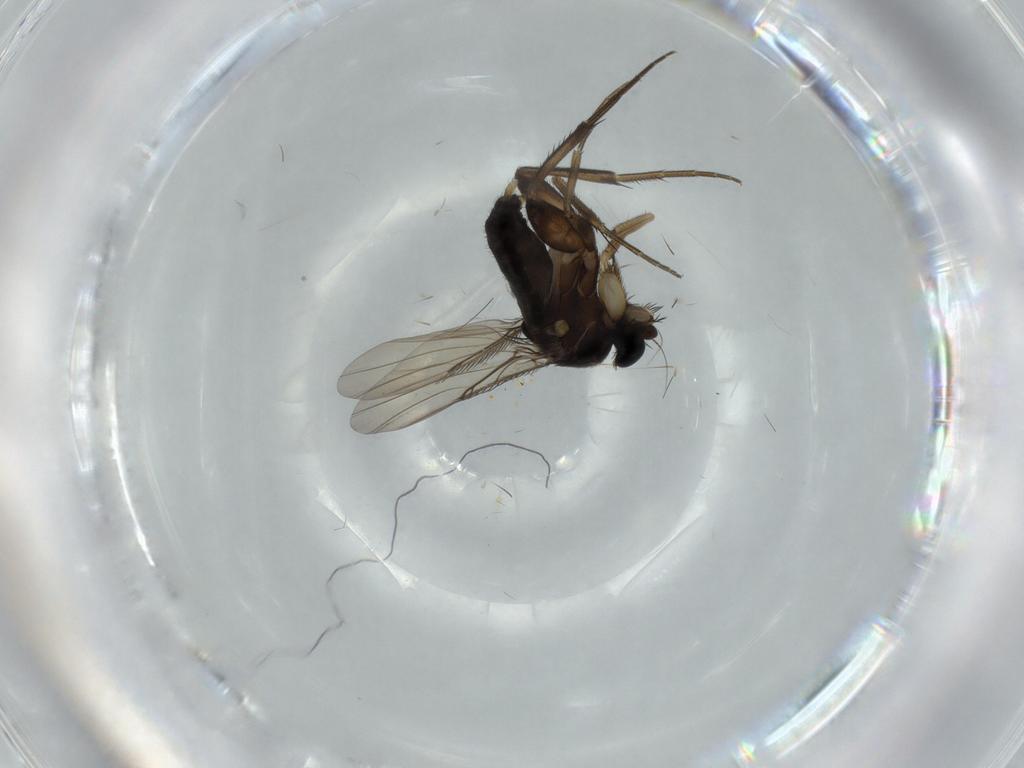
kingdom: Animalia
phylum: Arthropoda
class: Insecta
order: Diptera
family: Phoridae
